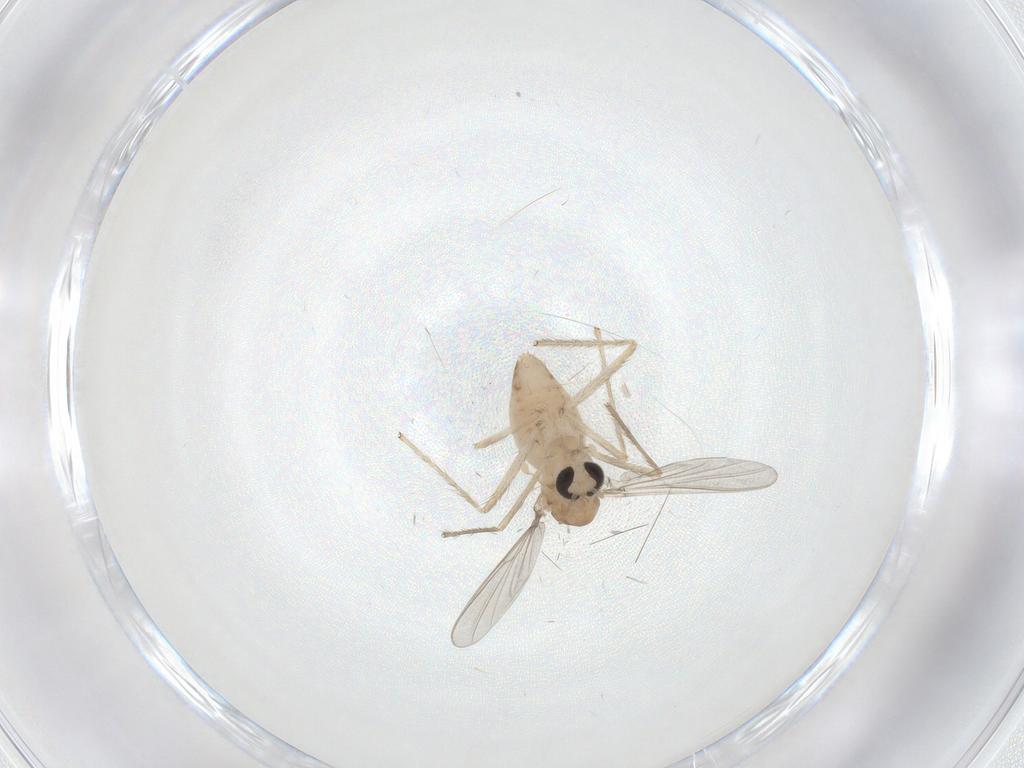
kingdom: Animalia
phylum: Arthropoda
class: Insecta
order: Diptera
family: Chironomidae
